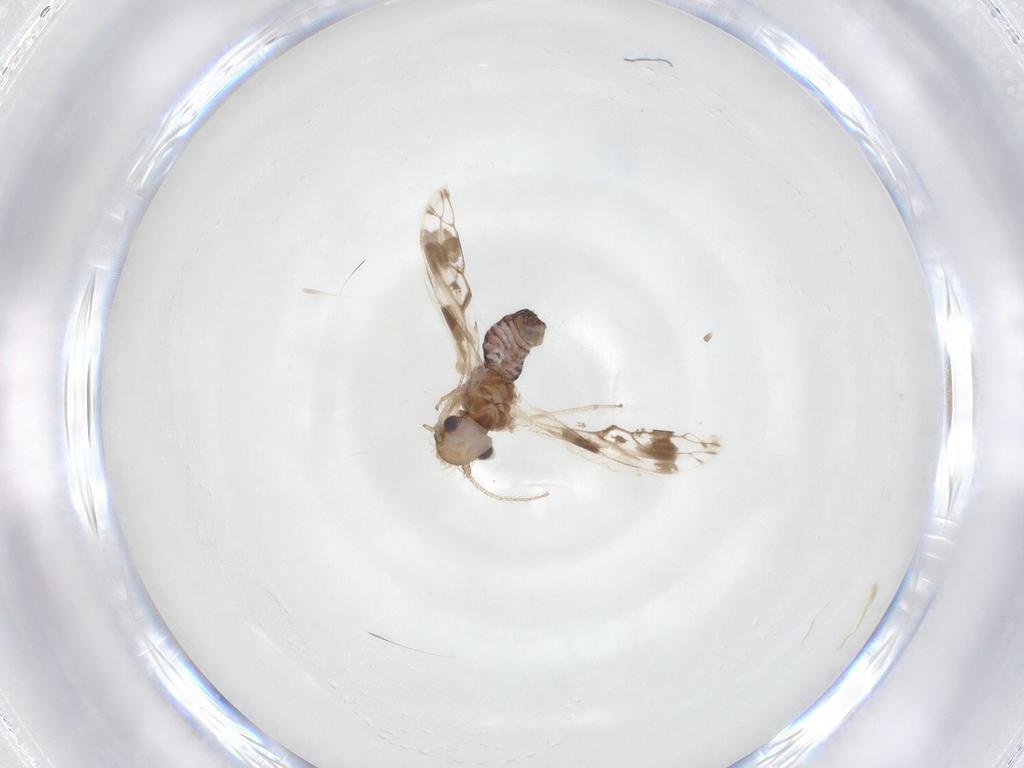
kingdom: Animalia
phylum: Arthropoda
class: Insecta
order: Psocodea
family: Pseudocaeciliidae
